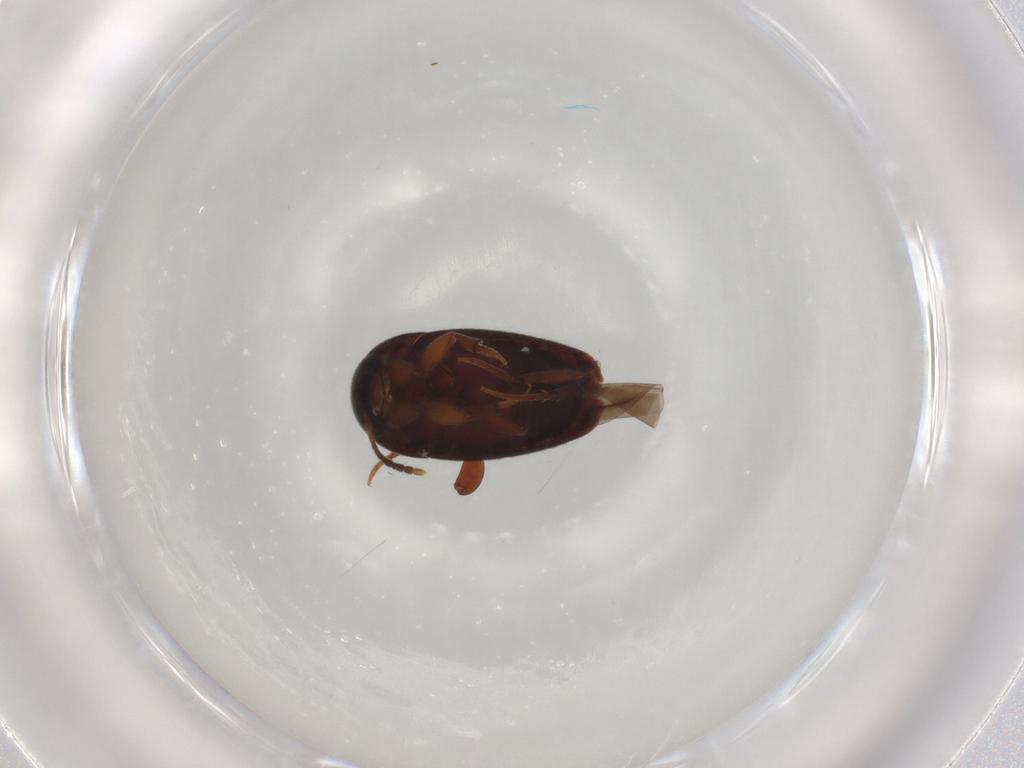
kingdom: Animalia
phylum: Arthropoda
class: Insecta
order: Coleoptera
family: Leiodidae
